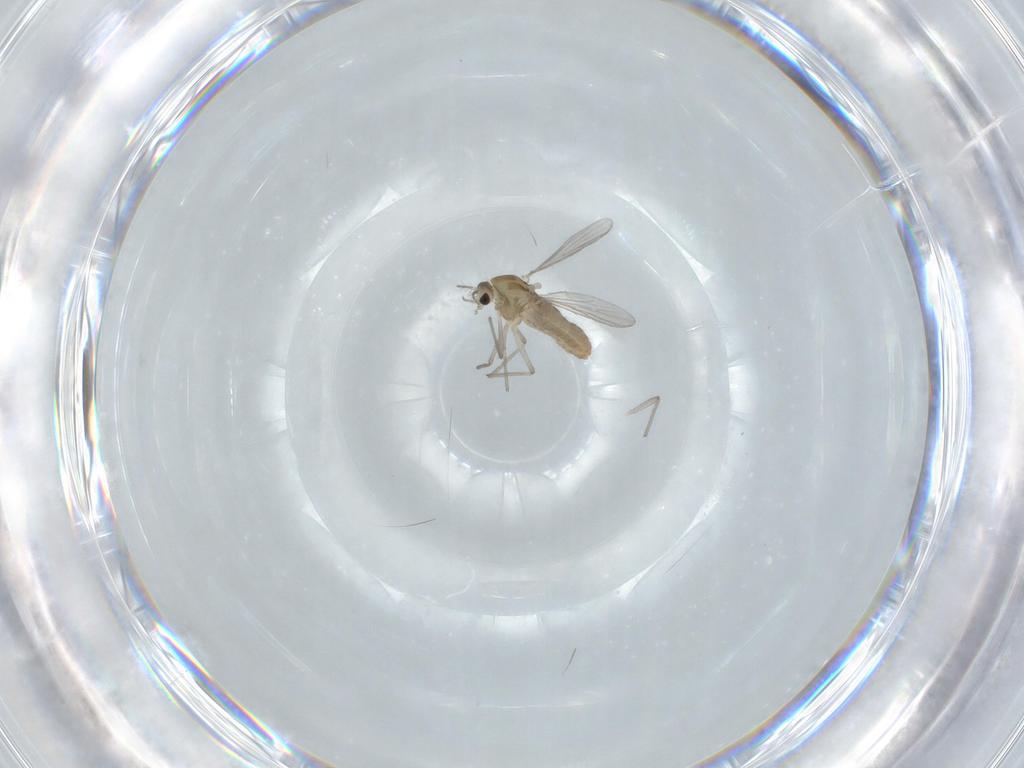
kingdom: Animalia
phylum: Arthropoda
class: Insecta
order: Diptera
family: Chironomidae
